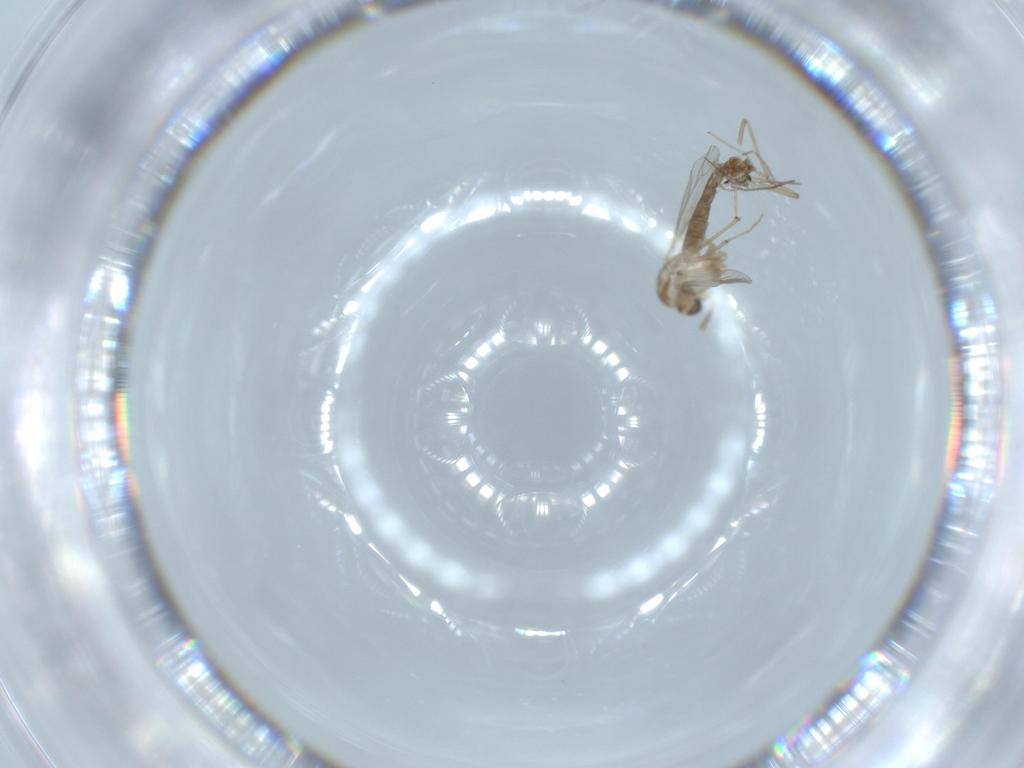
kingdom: Animalia
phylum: Arthropoda
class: Insecta
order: Diptera
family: Chironomidae
